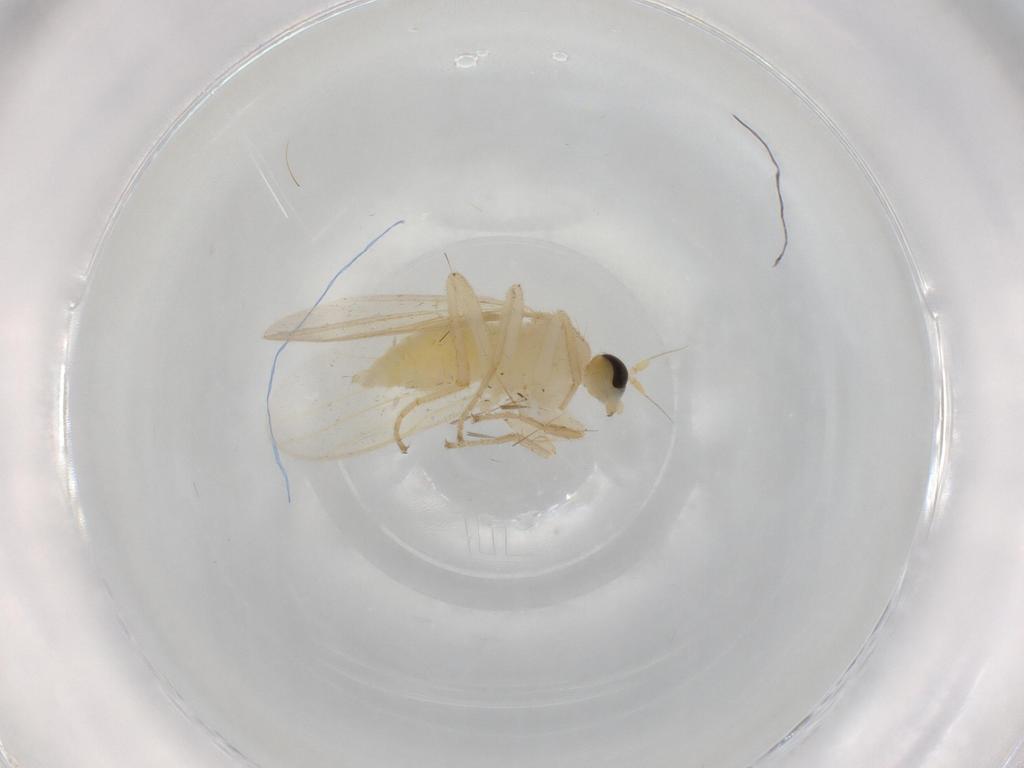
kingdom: Animalia
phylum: Arthropoda
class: Insecta
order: Diptera
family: Hybotidae
